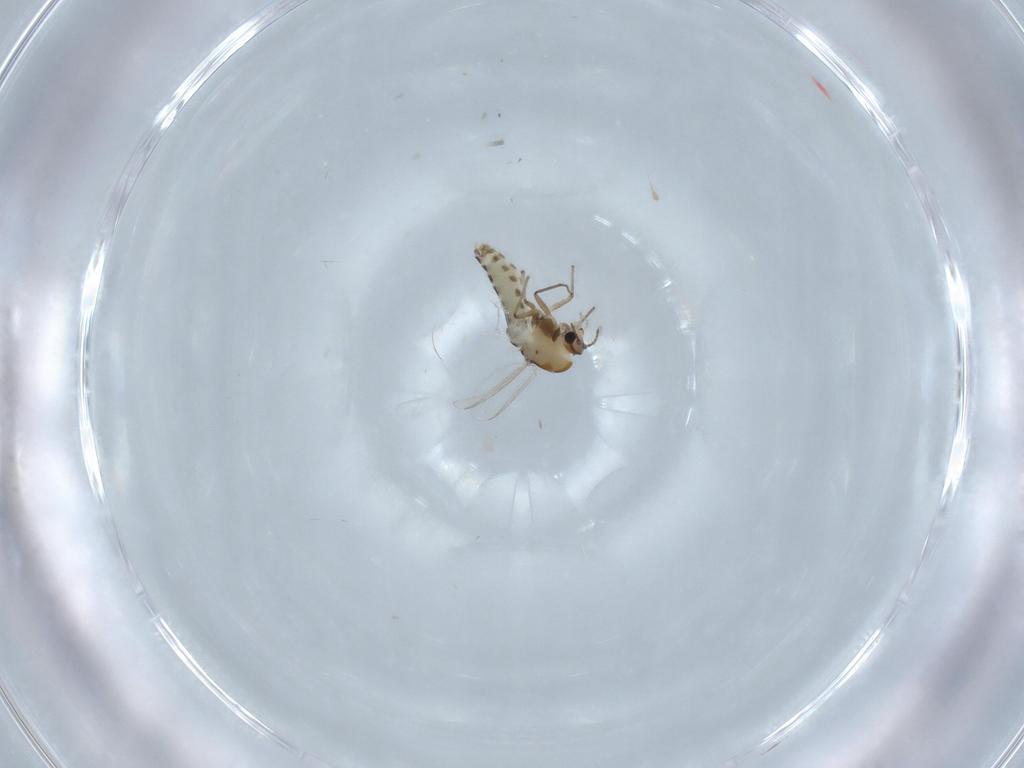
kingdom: Animalia
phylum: Arthropoda
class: Insecta
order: Diptera
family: Chironomidae
